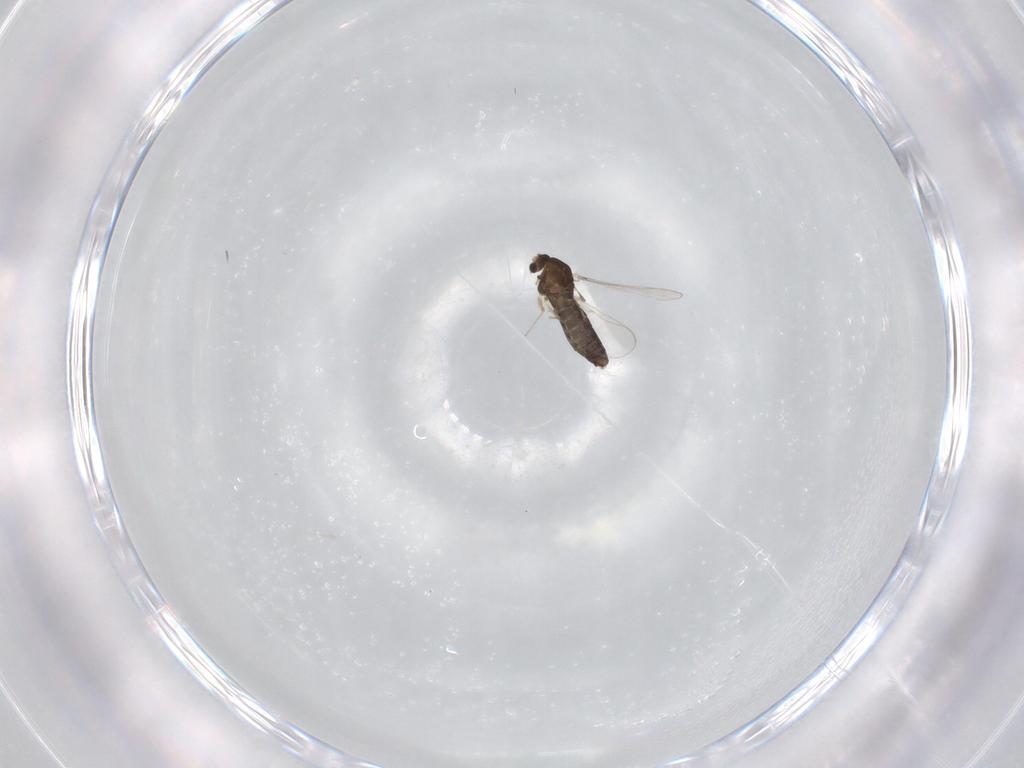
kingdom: Animalia
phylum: Arthropoda
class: Insecta
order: Diptera
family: Chironomidae
